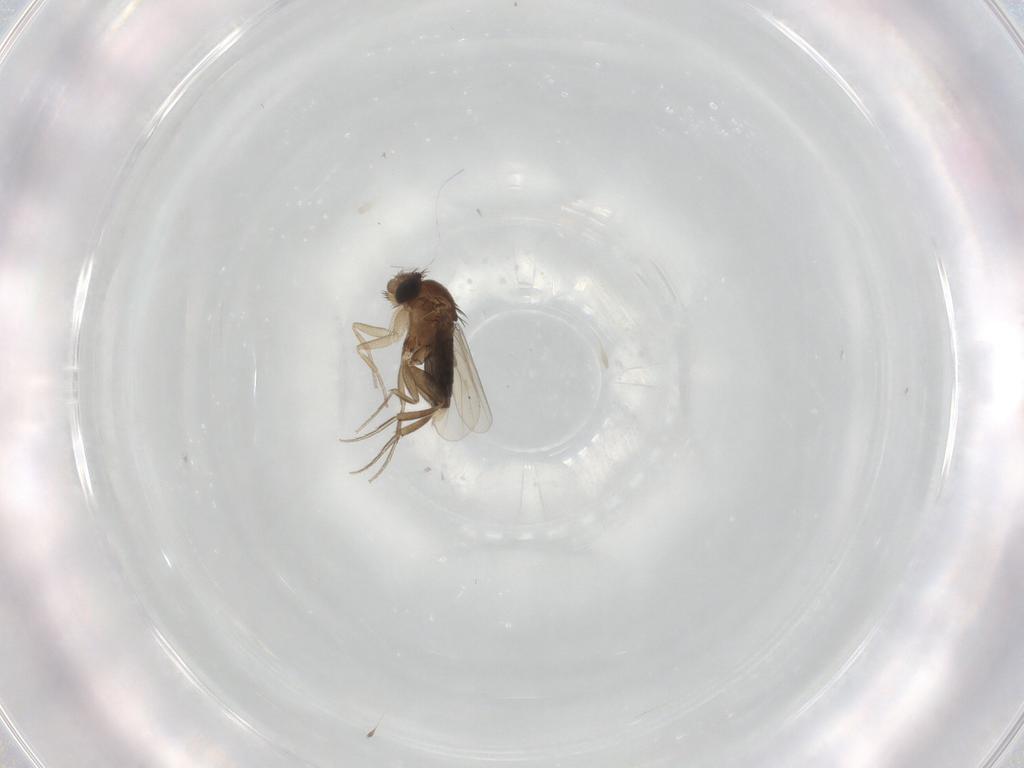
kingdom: Animalia
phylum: Arthropoda
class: Insecta
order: Diptera
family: Phoridae
